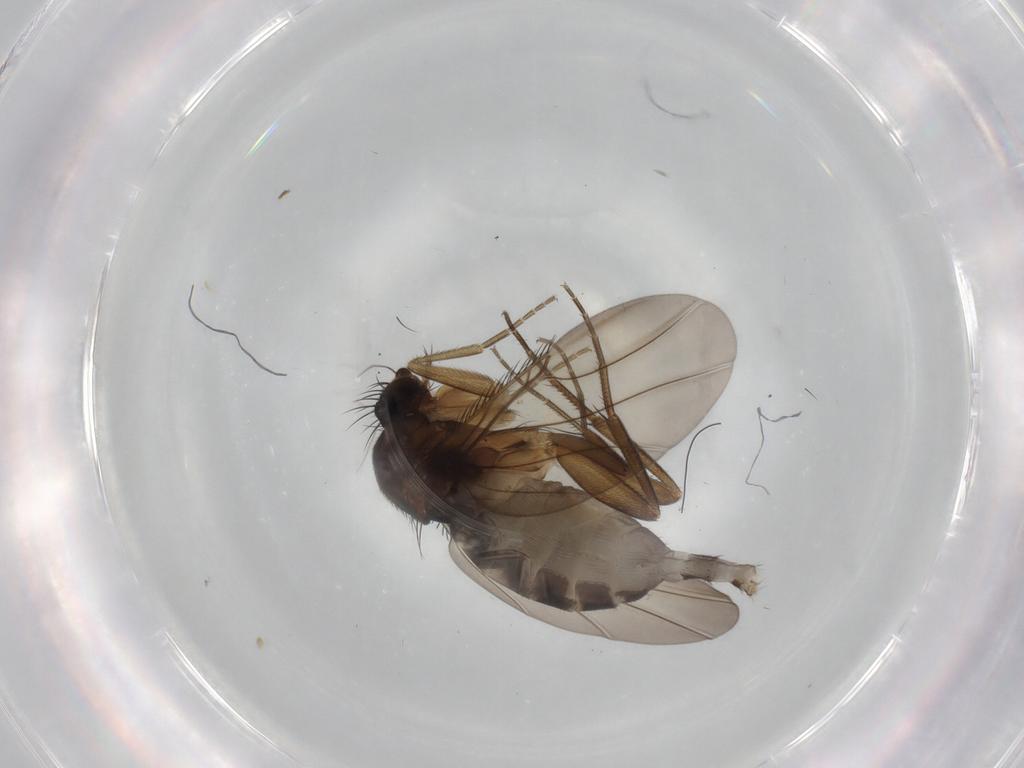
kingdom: Animalia
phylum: Arthropoda
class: Insecta
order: Diptera
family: Phoridae
